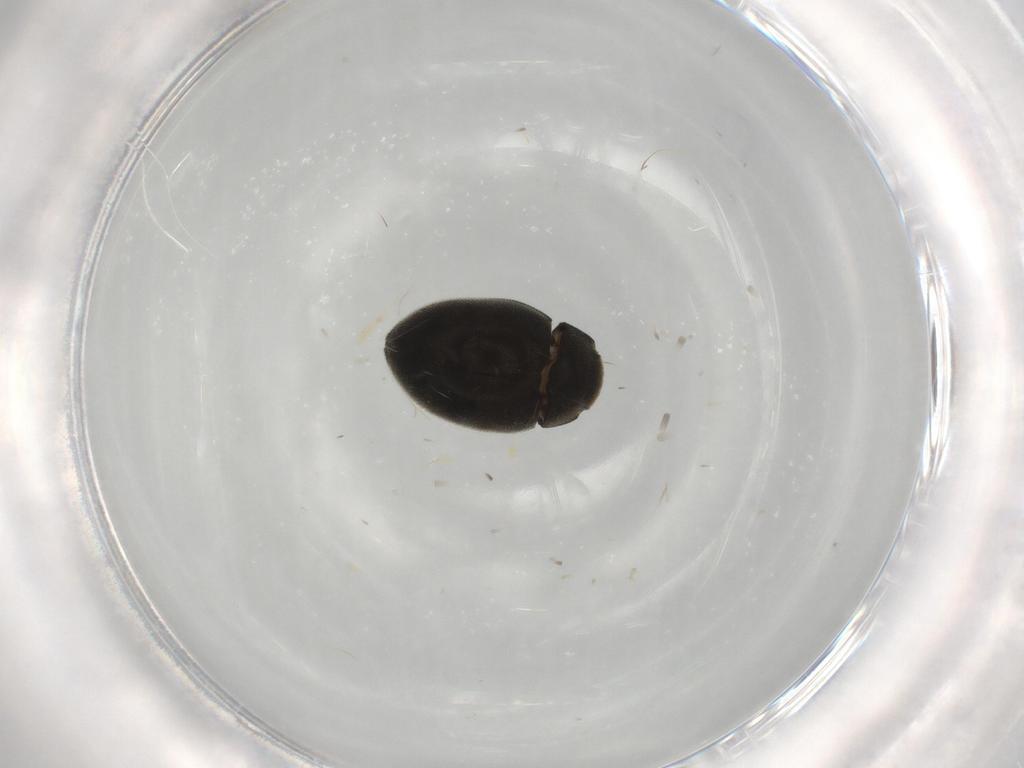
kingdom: Animalia
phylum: Arthropoda
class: Insecta
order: Coleoptera
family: Limnichidae
